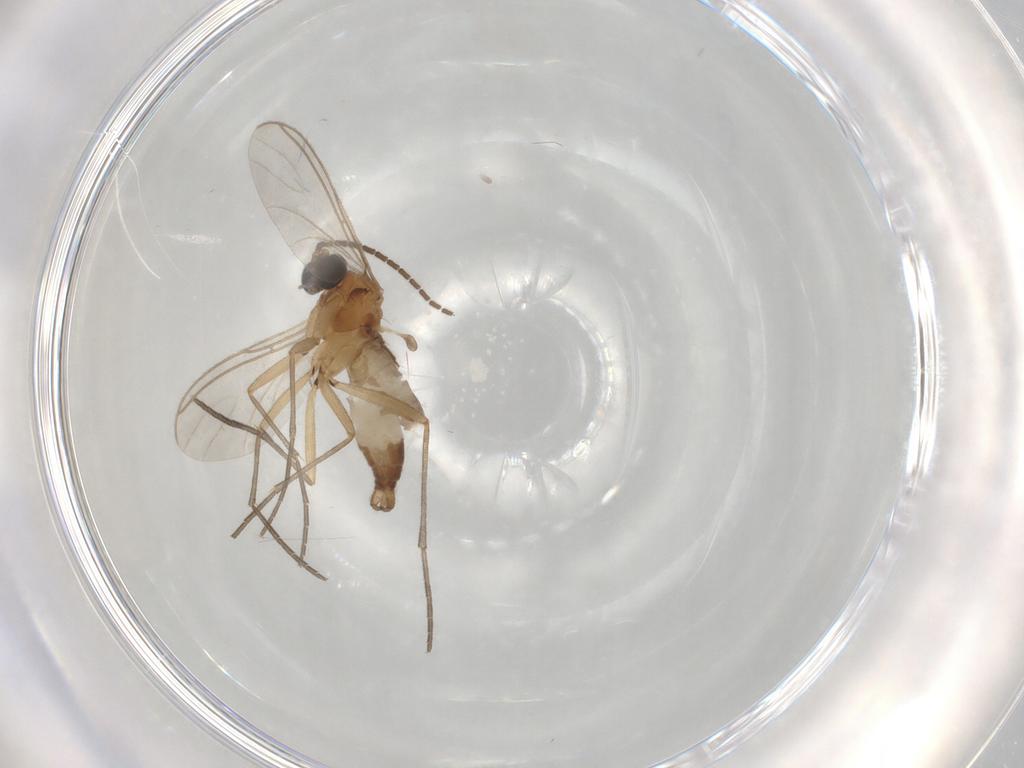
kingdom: Animalia
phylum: Arthropoda
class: Insecta
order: Diptera
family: Sciaridae
